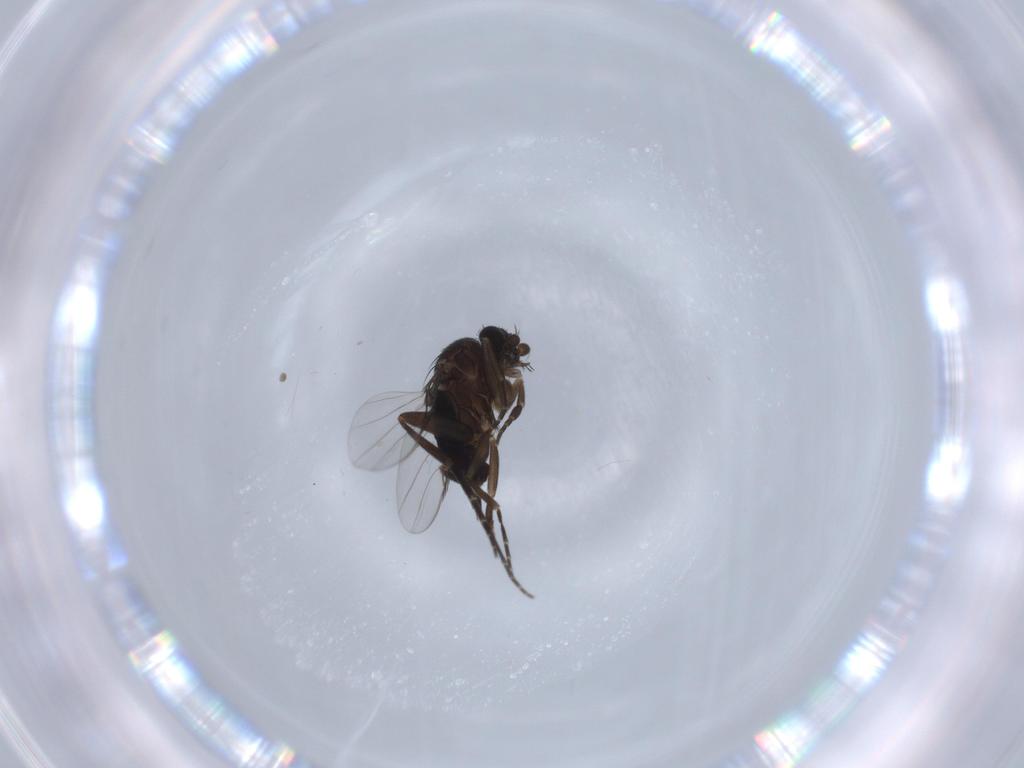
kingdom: Animalia
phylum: Arthropoda
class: Insecta
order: Diptera
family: Phoridae
